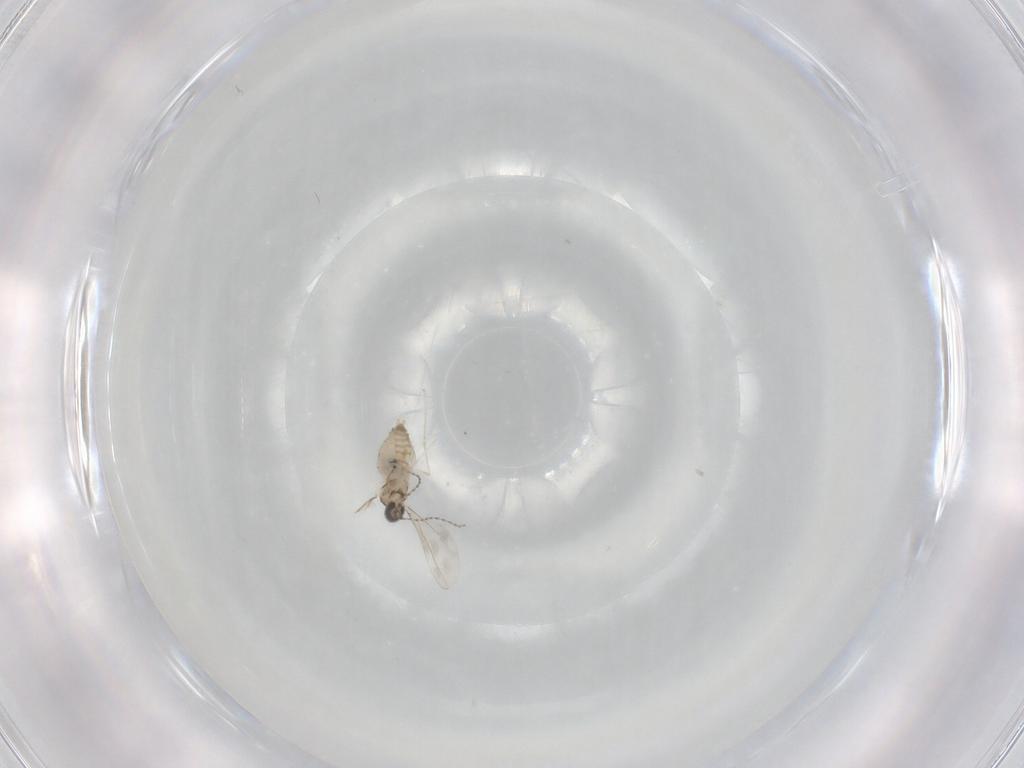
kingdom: Animalia
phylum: Arthropoda
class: Insecta
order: Diptera
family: Cecidomyiidae
